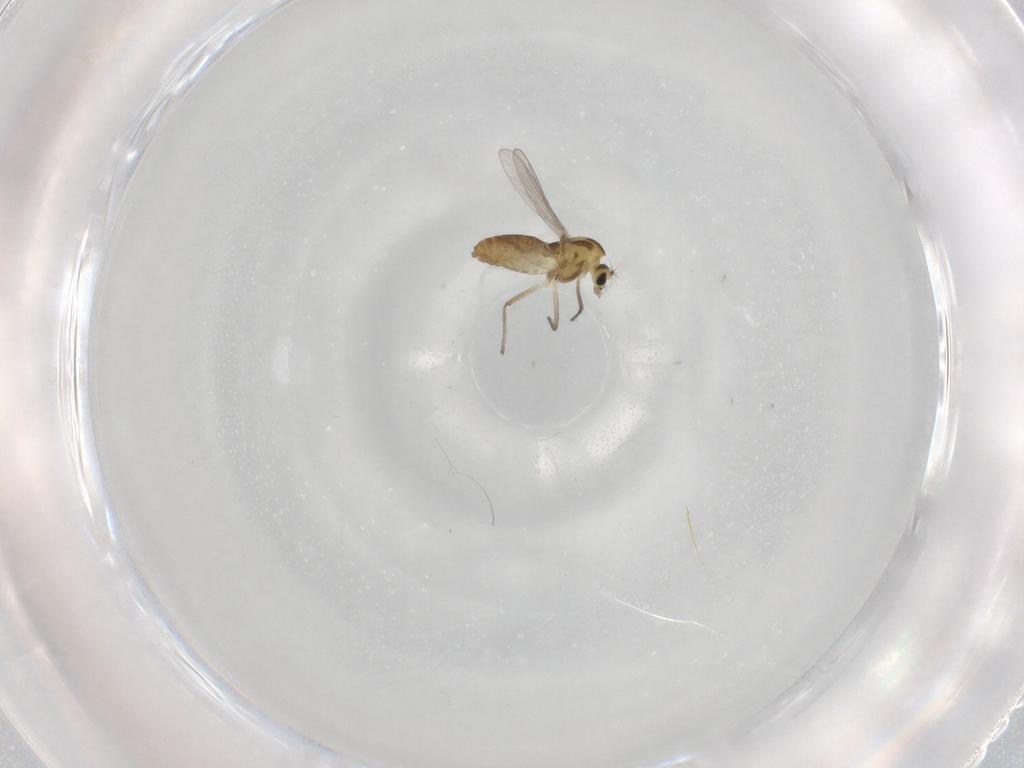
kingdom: Animalia
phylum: Arthropoda
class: Insecta
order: Diptera
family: Chironomidae
